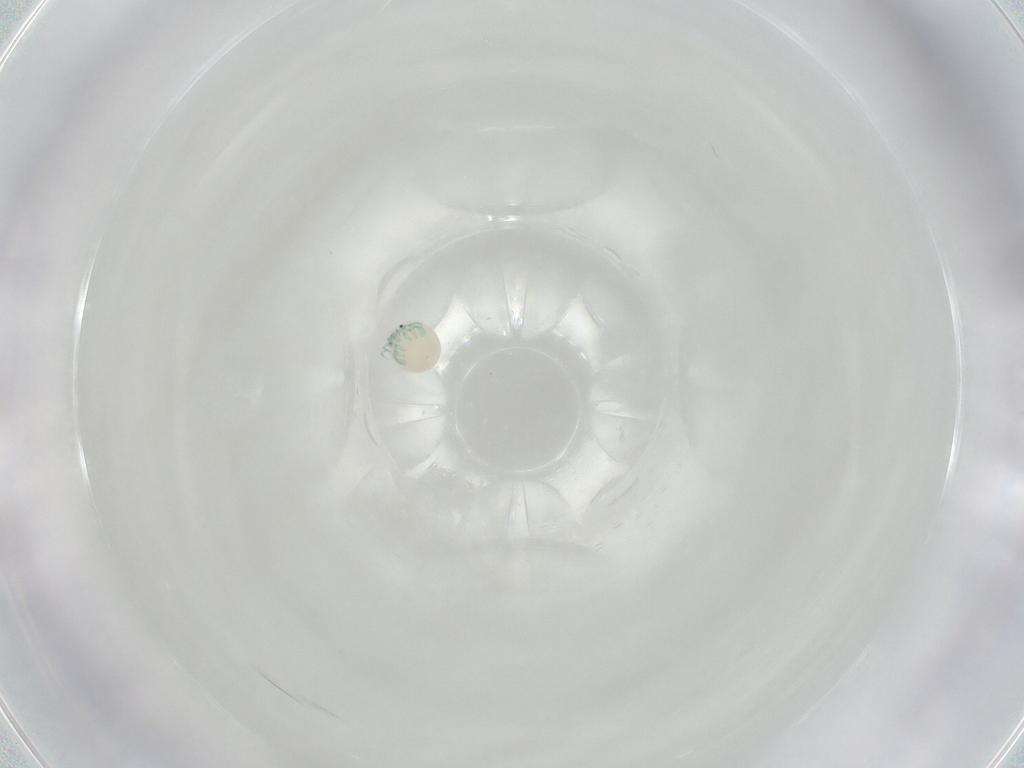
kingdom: Animalia
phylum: Arthropoda
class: Arachnida
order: Trombidiformes
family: Arrenuridae
